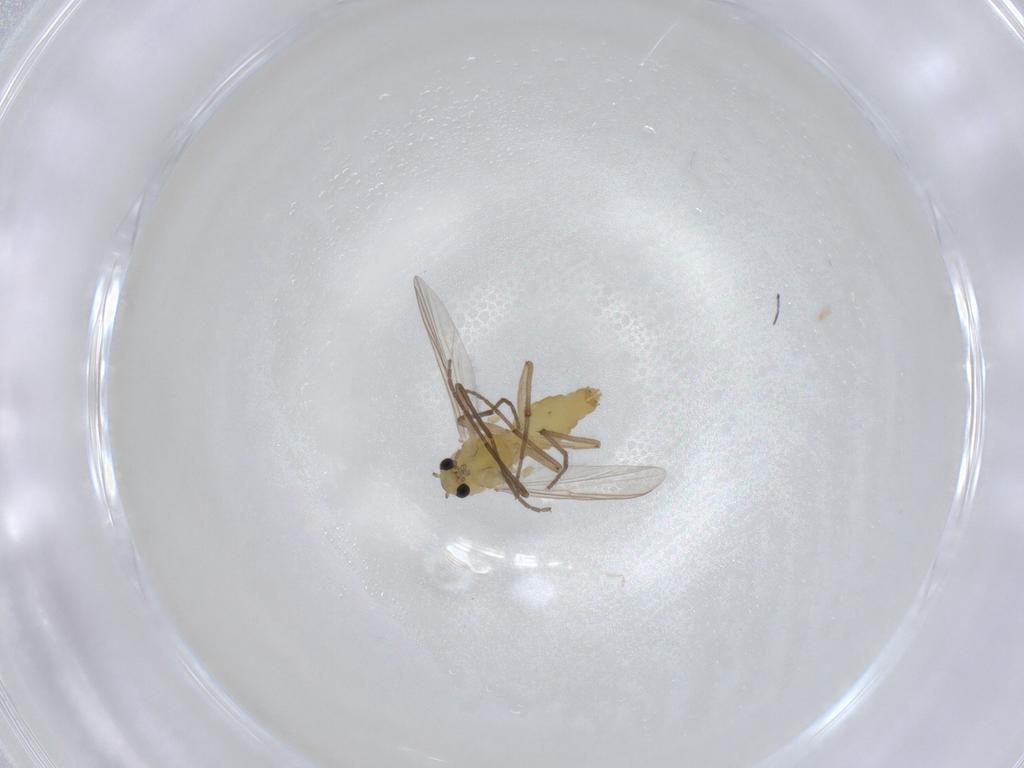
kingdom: Animalia
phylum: Arthropoda
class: Insecta
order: Diptera
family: Chironomidae
